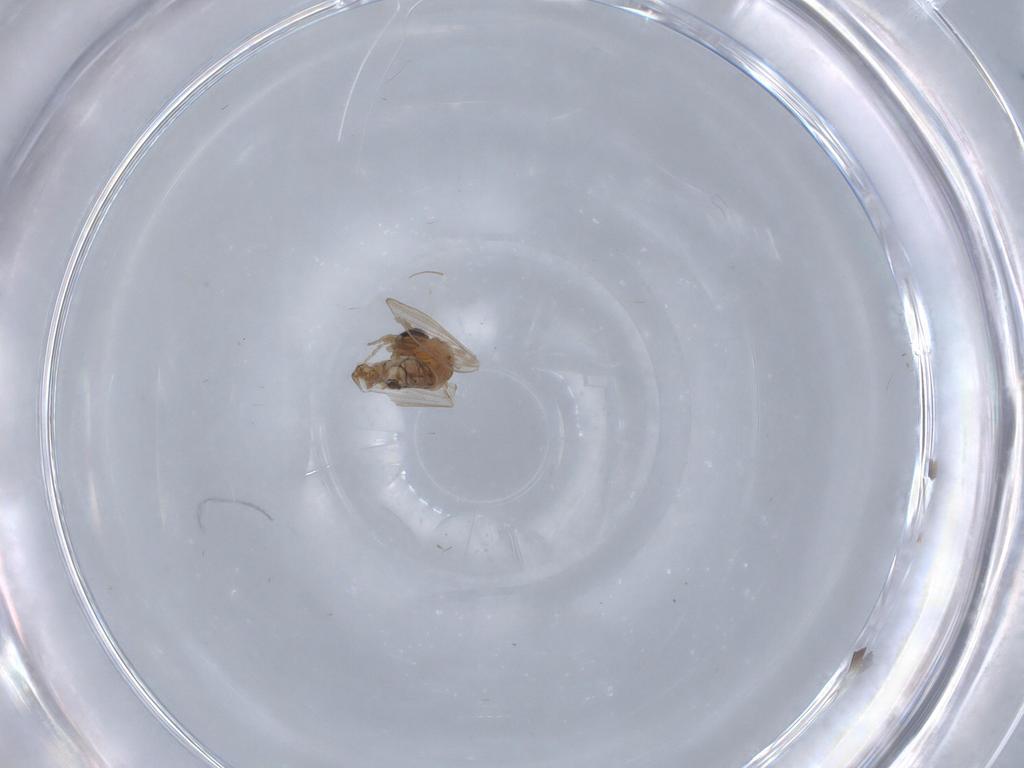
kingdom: Animalia
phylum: Arthropoda
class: Insecta
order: Diptera
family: Psychodidae
